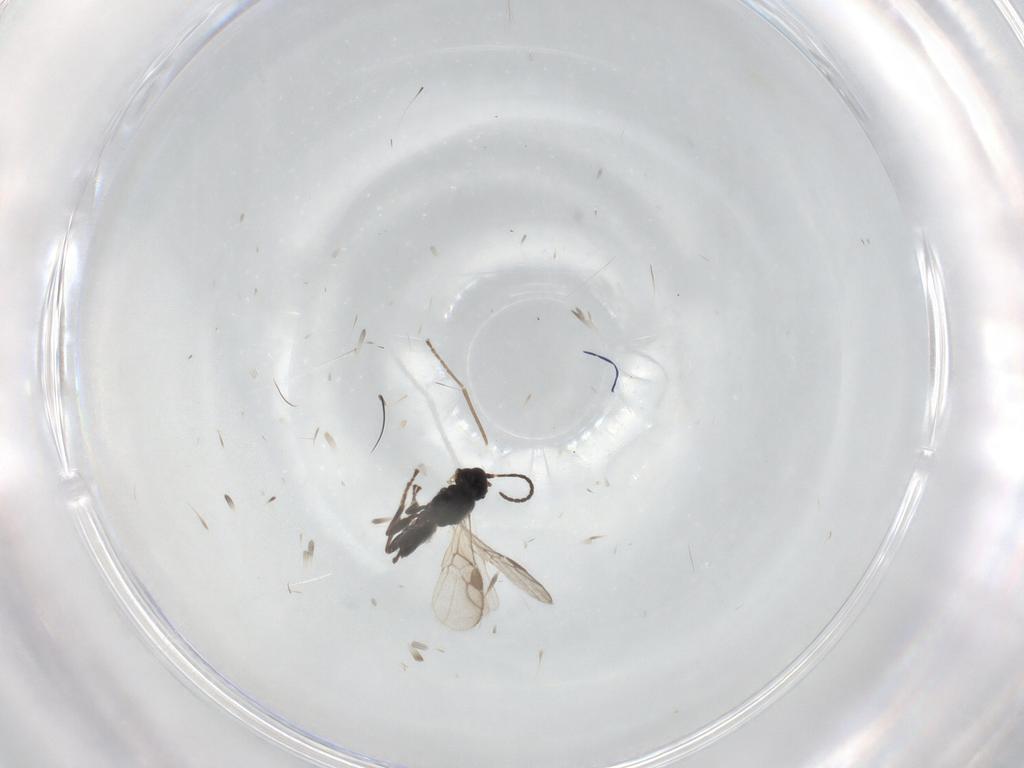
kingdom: Animalia
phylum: Arthropoda
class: Insecta
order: Hymenoptera
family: Braconidae
